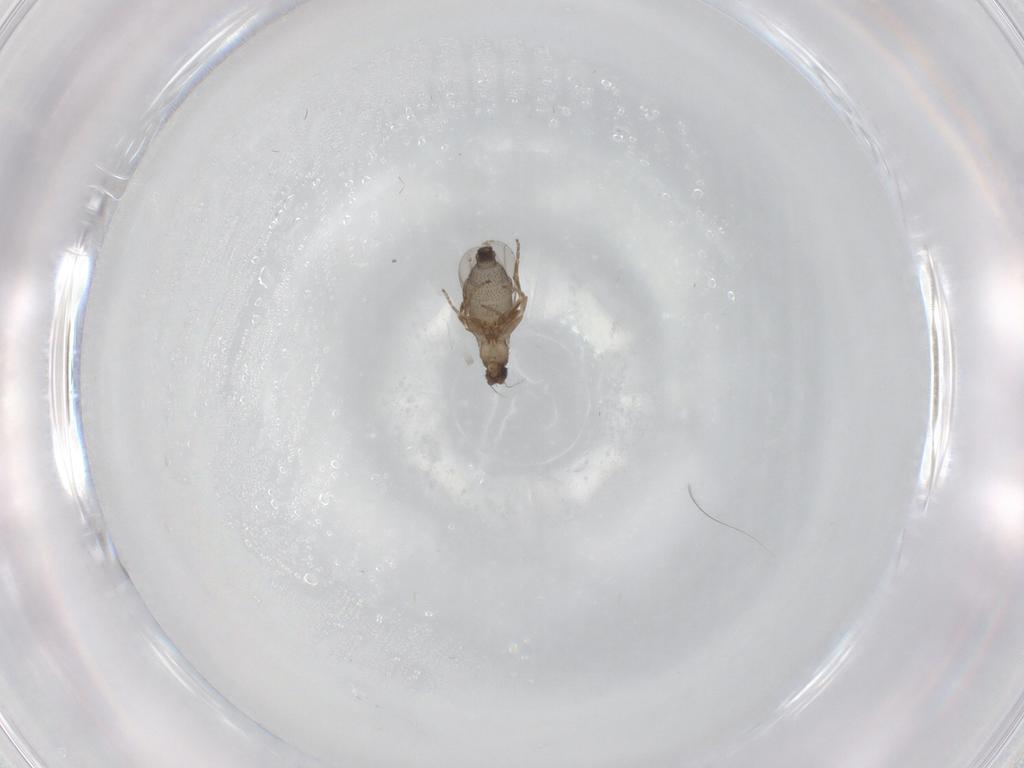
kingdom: Animalia
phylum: Arthropoda
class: Insecta
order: Diptera
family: Phoridae
